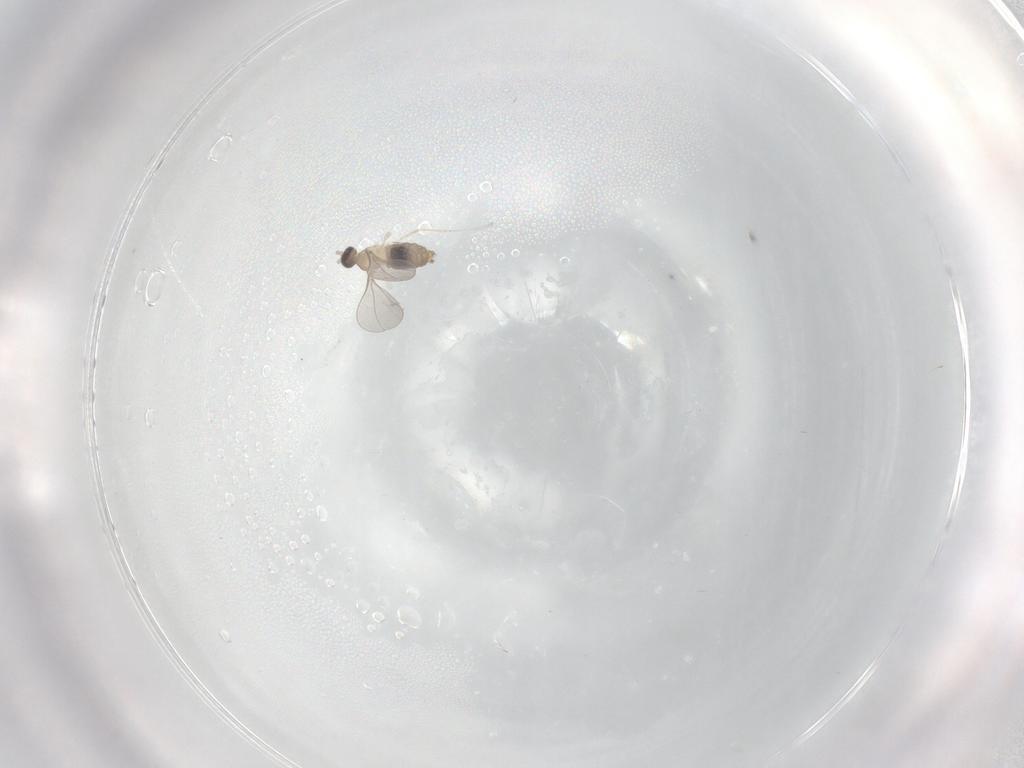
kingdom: Animalia
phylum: Arthropoda
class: Insecta
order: Diptera
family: Cecidomyiidae
